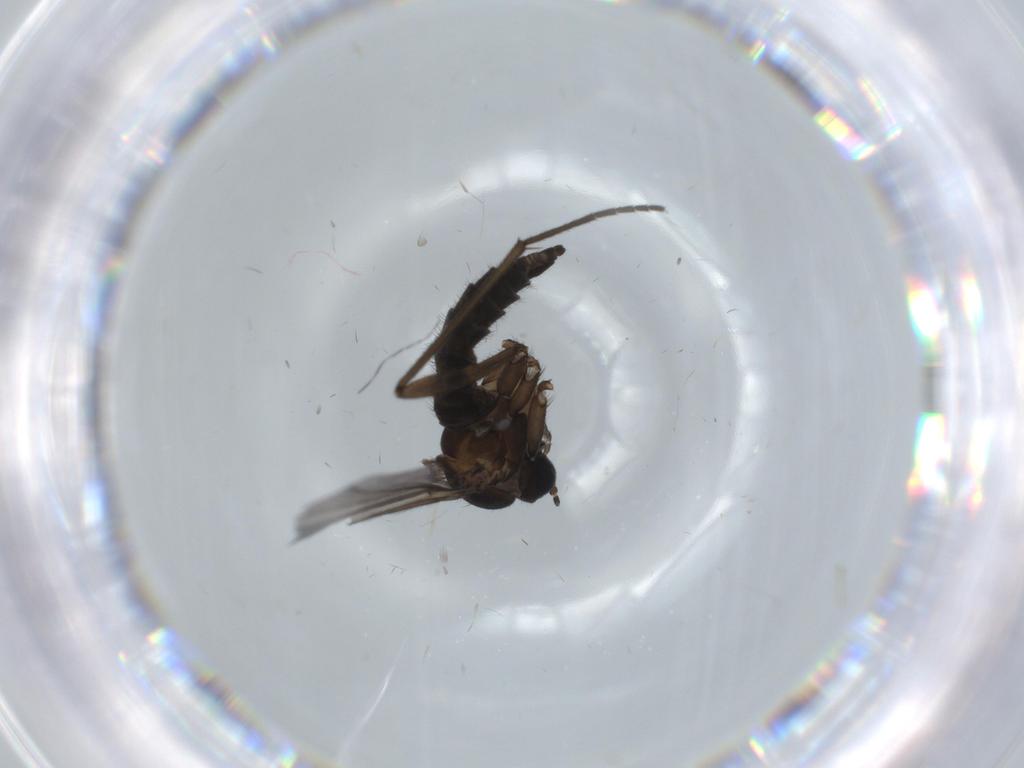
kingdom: Animalia
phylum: Arthropoda
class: Insecta
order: Diptera
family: Sciaridae
